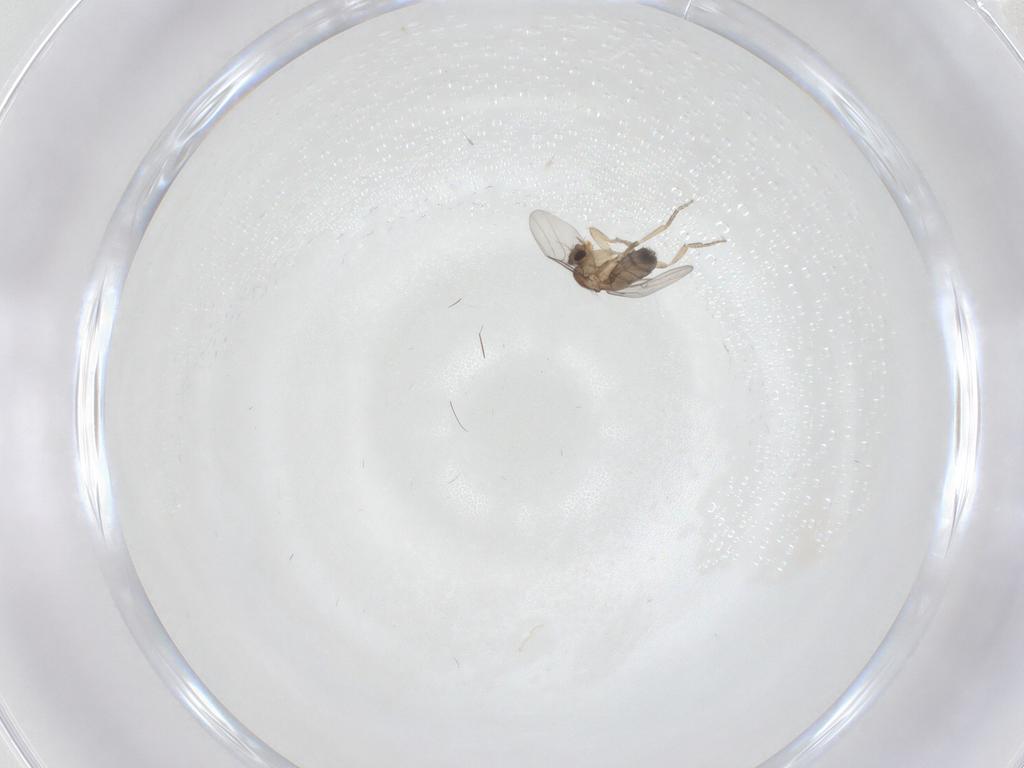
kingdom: Animalia
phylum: Arthropoda
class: Insecta
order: Diptera
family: Phoridae
